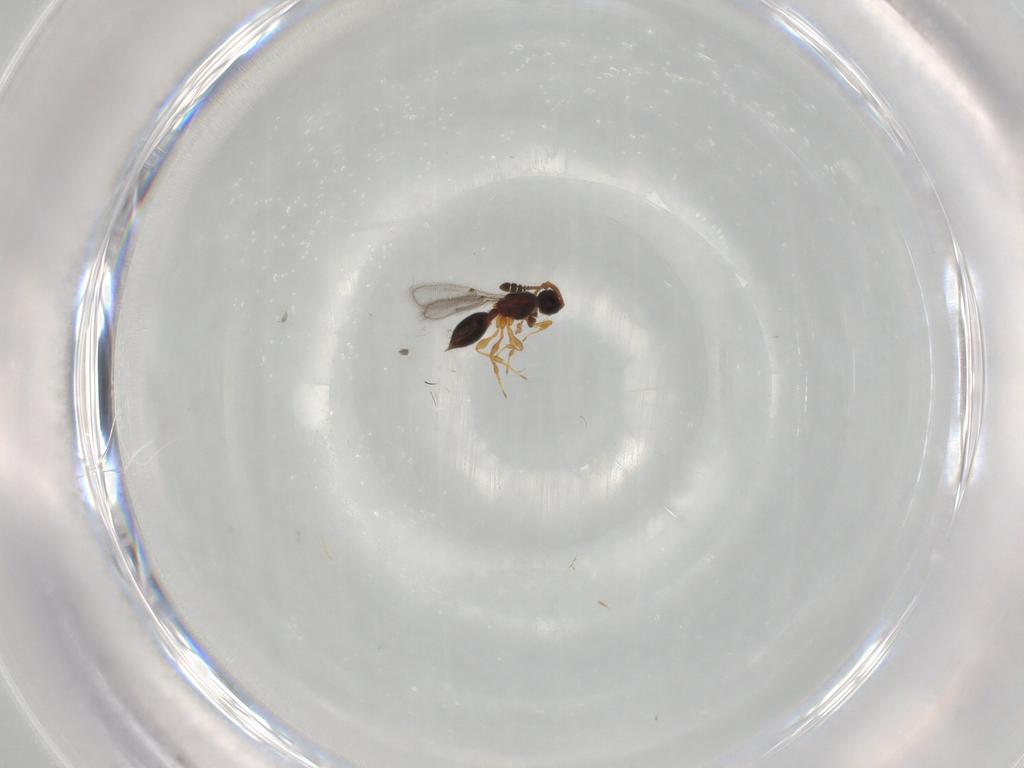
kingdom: Animalia
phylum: Arthropoda
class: Insecta
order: Hymenoptera
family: Diapriidae
